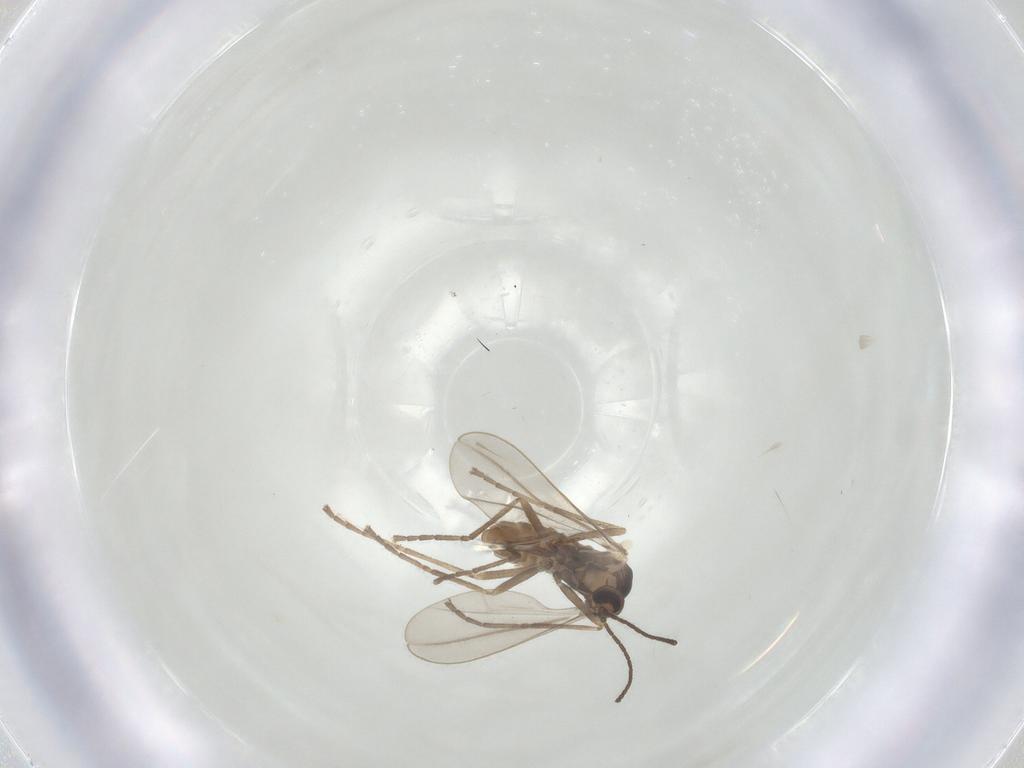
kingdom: Animalia
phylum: Arthropoda
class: Insecta
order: Diptera
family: Cecidomyiidae
